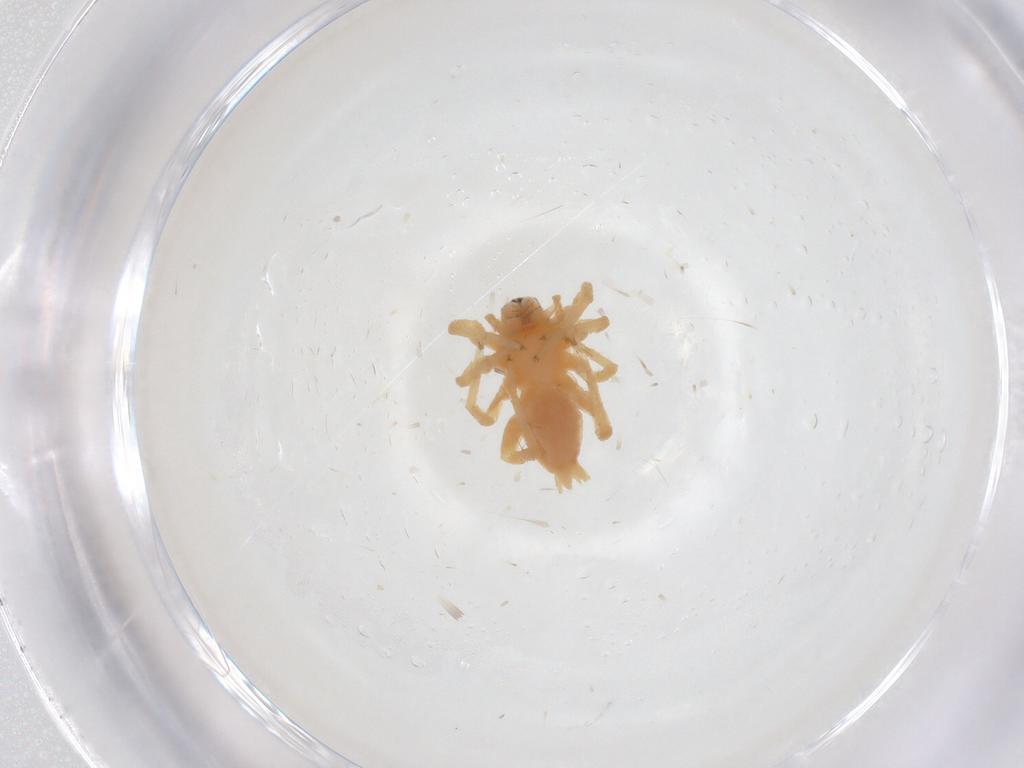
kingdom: Animalia
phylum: Arthropoda
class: Arachnida
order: Araneae
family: Anyphaenidae
